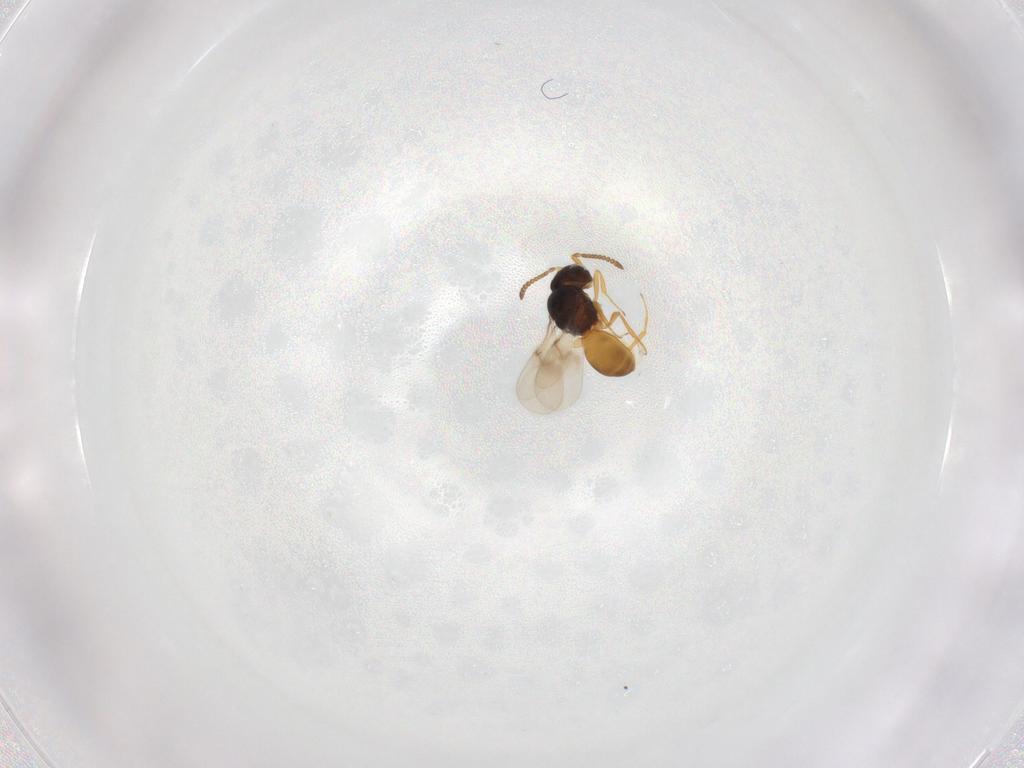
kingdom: Animalia
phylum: Arthropoda
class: Insecta
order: Hymenoptera
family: Scelionidae
